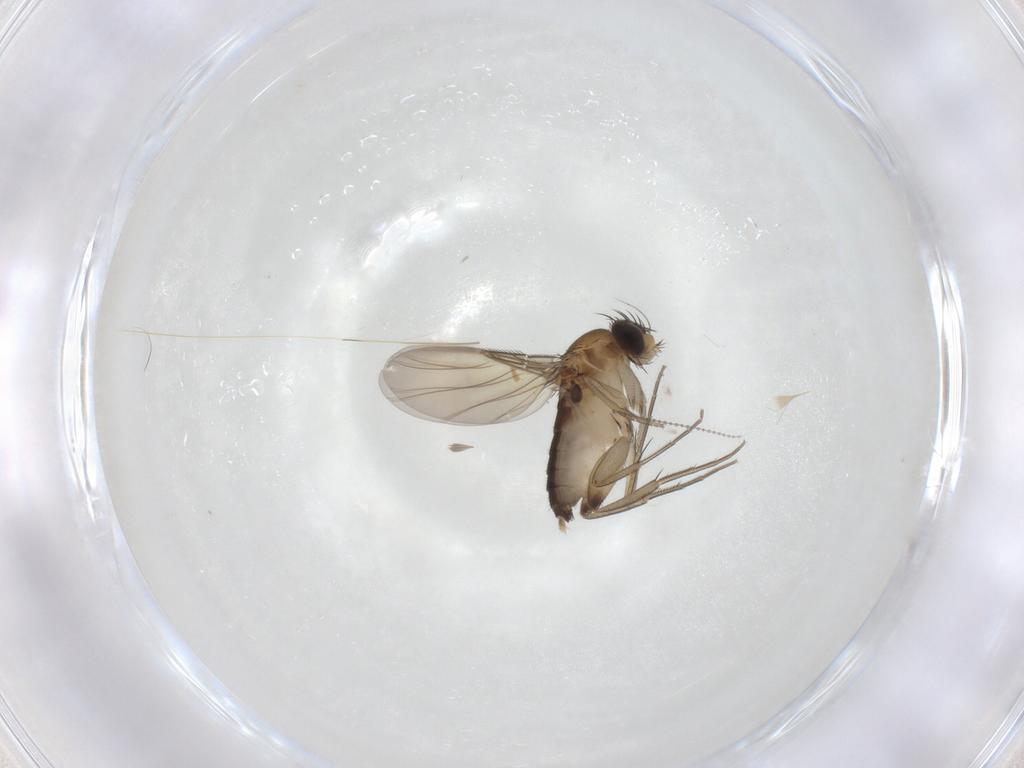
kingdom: Animalia
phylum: Arthropoda
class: Insecta
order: Diptera
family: Phoridae
